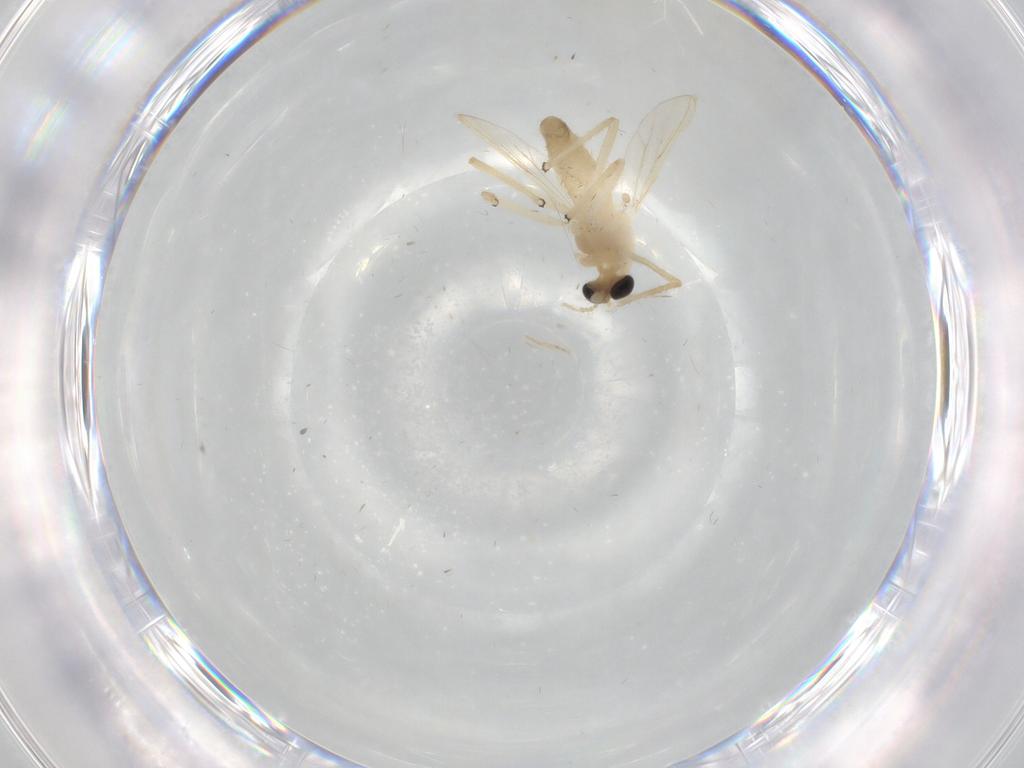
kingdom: Animalia
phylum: Arthropoda
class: Insecta
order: Diptera
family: Chironomidae
